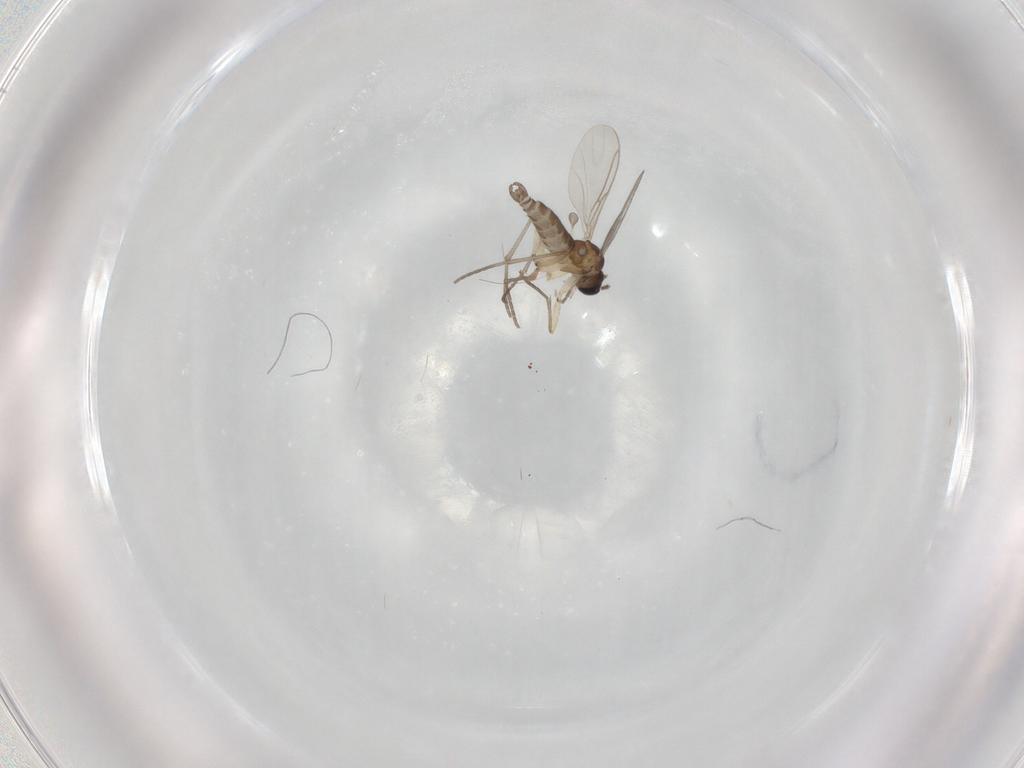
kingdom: Animalia
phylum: Arthropoda
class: Insecta
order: Diptera
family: Sciaridae
